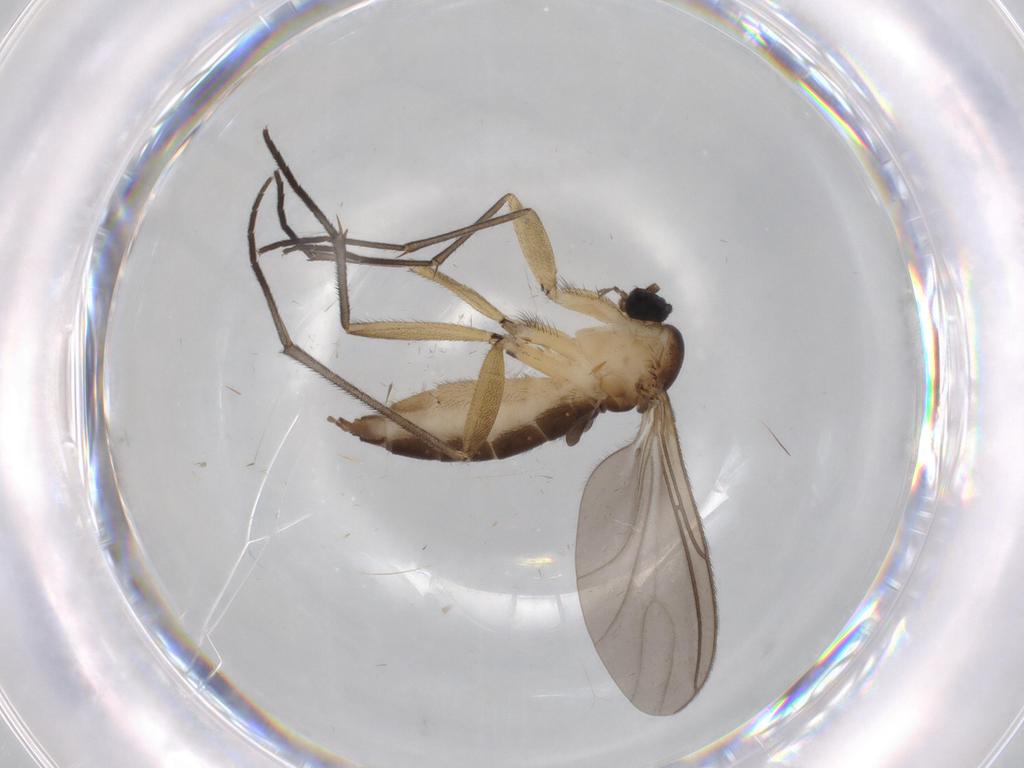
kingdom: Animalia
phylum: Arthropoda
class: Insecta
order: Diptera
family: Sciaridae
